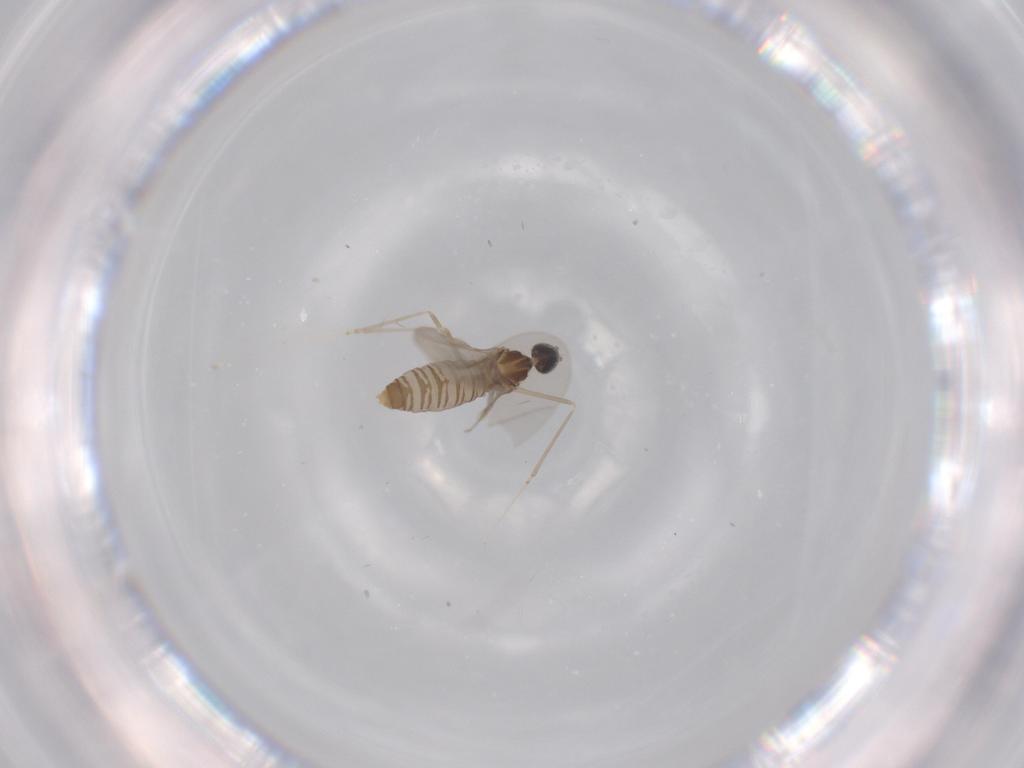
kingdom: Animalia
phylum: Arthropoda
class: Insecta
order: Diptera
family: Cecidomyiidae
